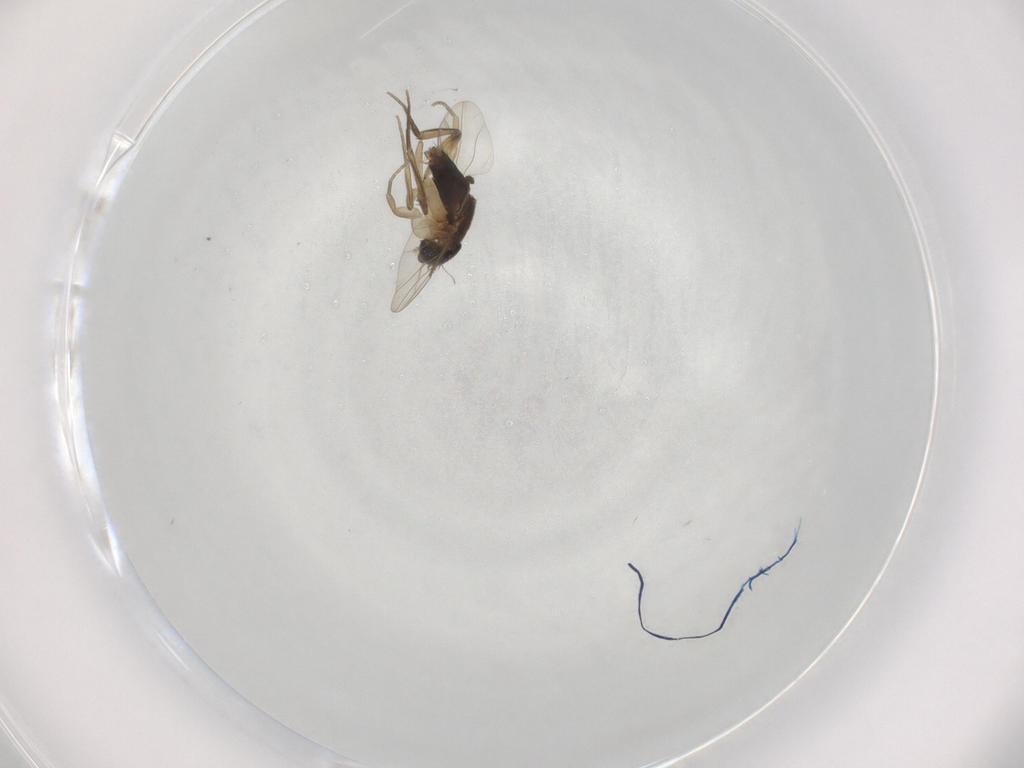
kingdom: Animalia
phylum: Arthropoda
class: Insecta
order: Diptera
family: Phoridae
